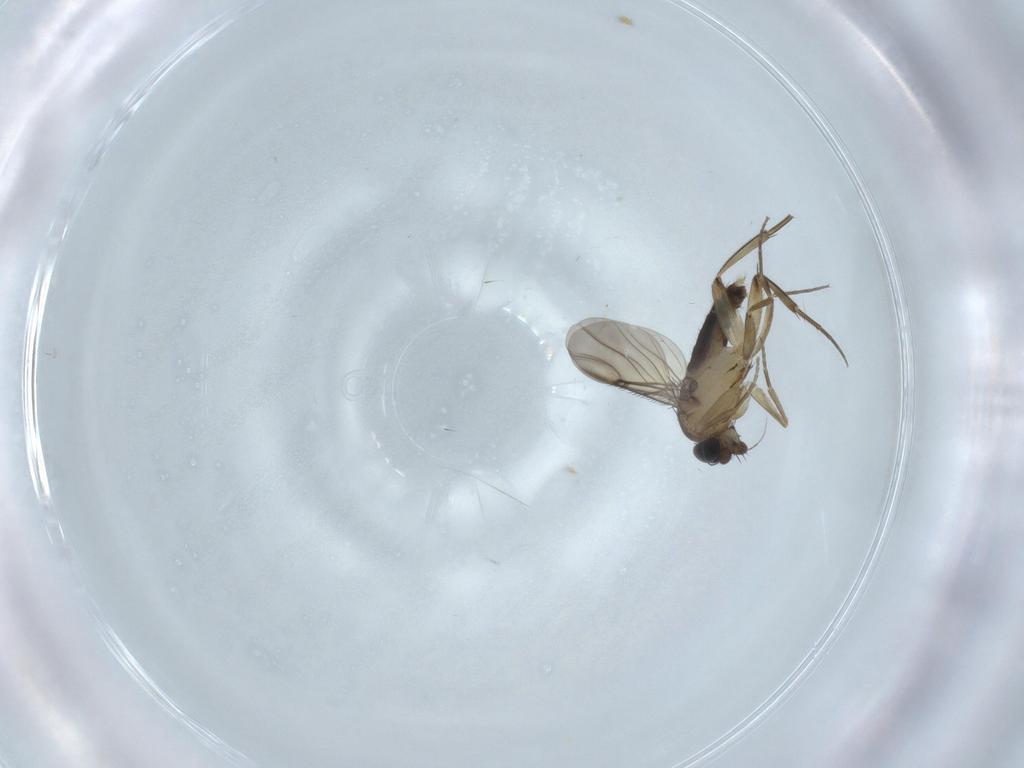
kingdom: Animalia
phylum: Arthropoda
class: Insecta
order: Diptera
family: Phoridae
